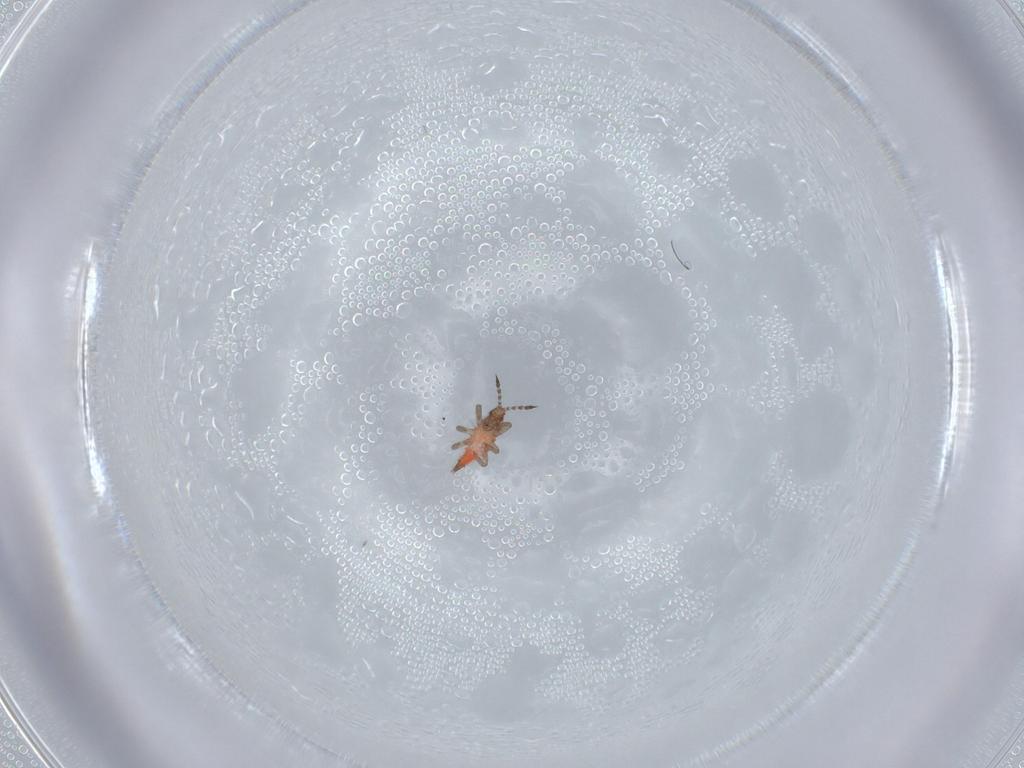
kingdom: Animalia
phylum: Arthropoda
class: Insecta
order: Thysanoptera
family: Phlaeothripidae
